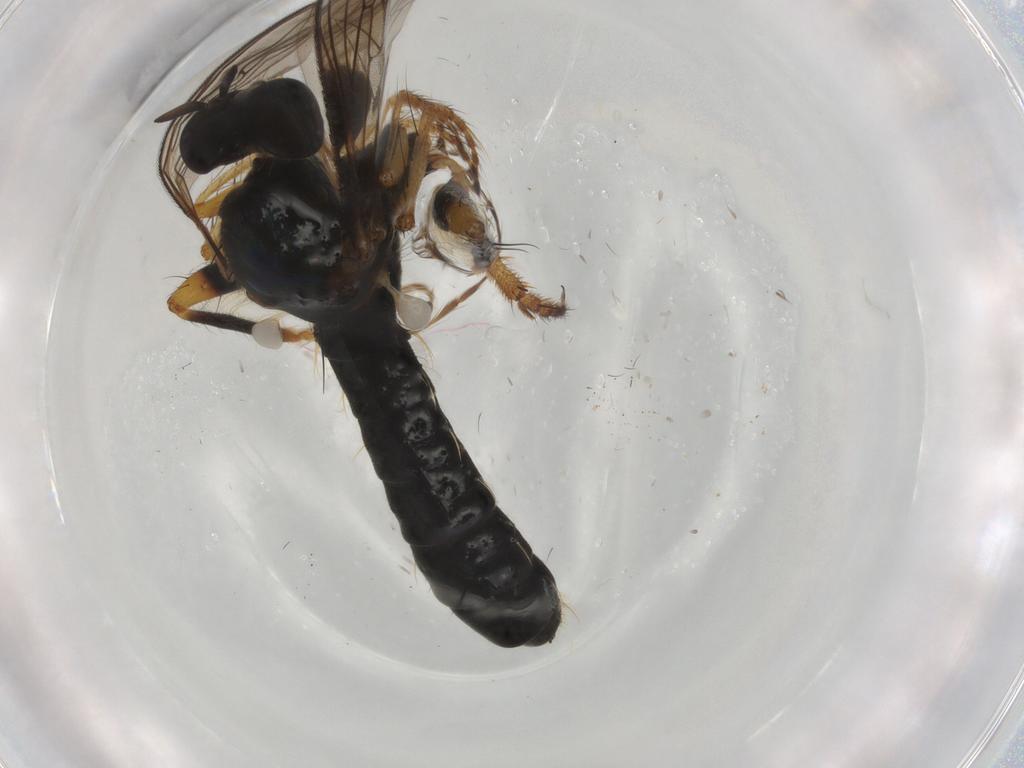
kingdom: Animalia
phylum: Arthropoda
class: Insecta
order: Diptera
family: Milichiidae
